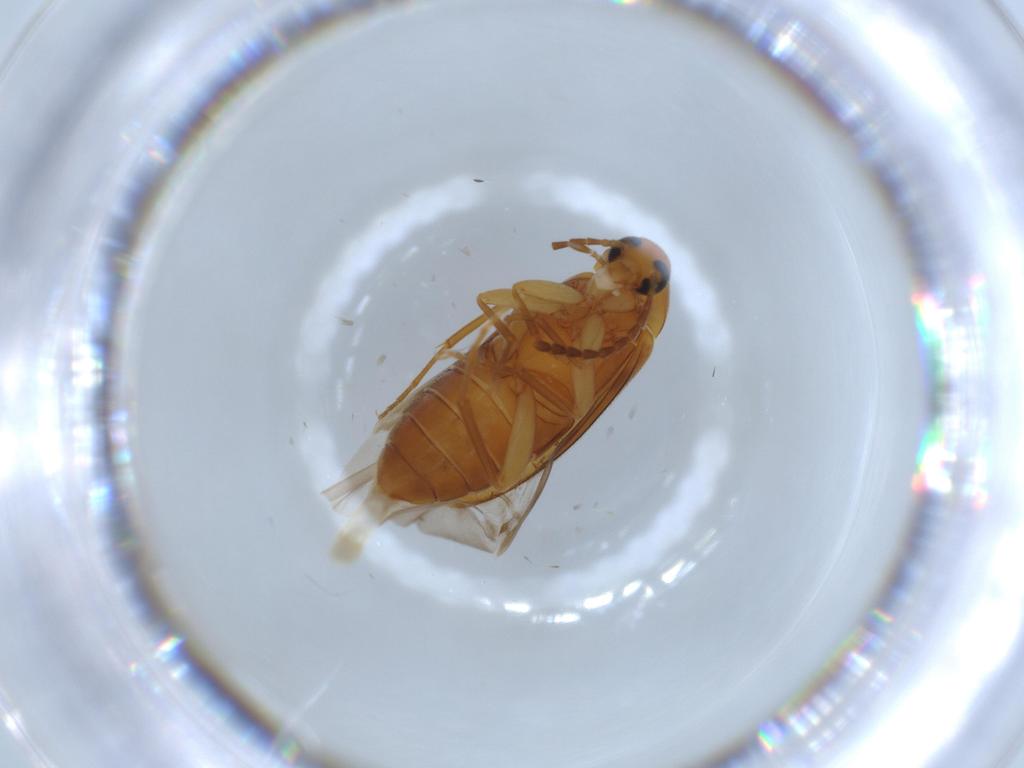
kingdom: Animalia
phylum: Arthropoda
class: Insecta
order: Coleoptera
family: Scraptiidae
